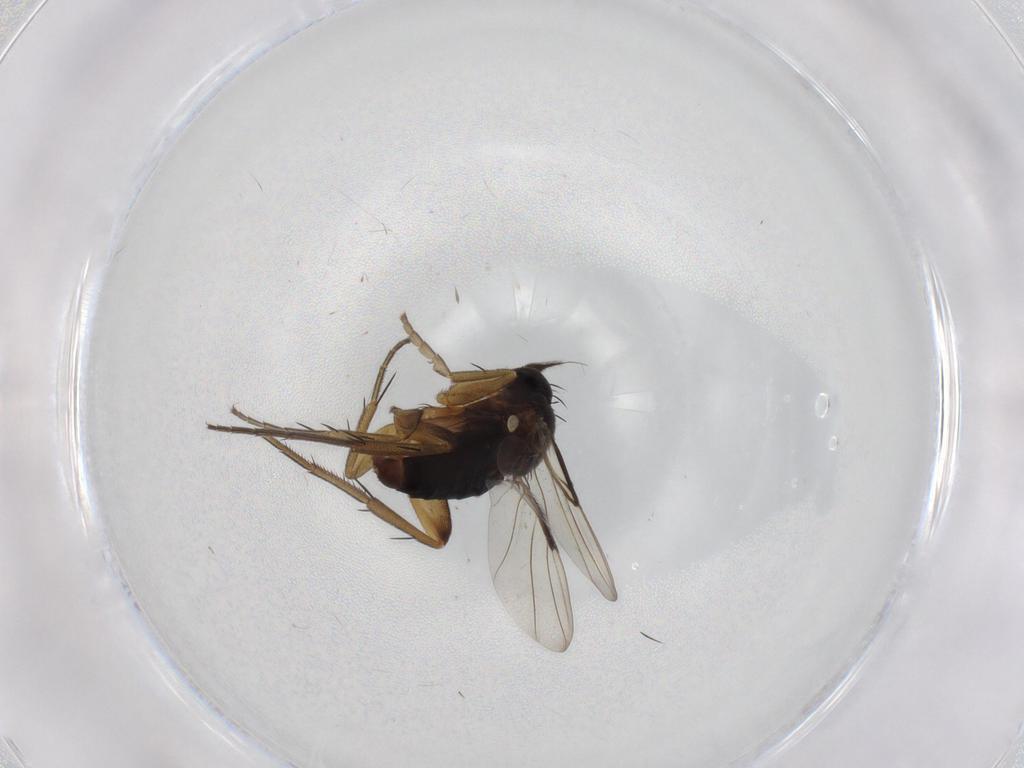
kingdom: Animalia
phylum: Arthropoda
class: Insecta
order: Diptera
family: Phoridae
